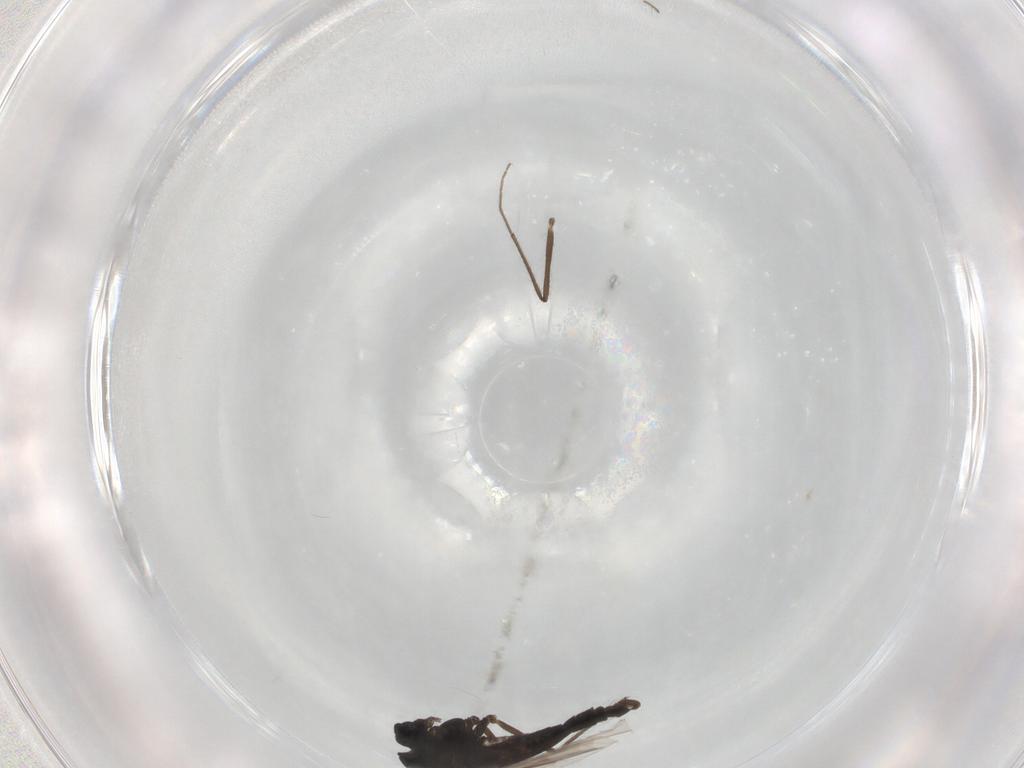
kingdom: Animalia
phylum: Arthropoda
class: Insecta
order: Diptera
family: Chironomidae
